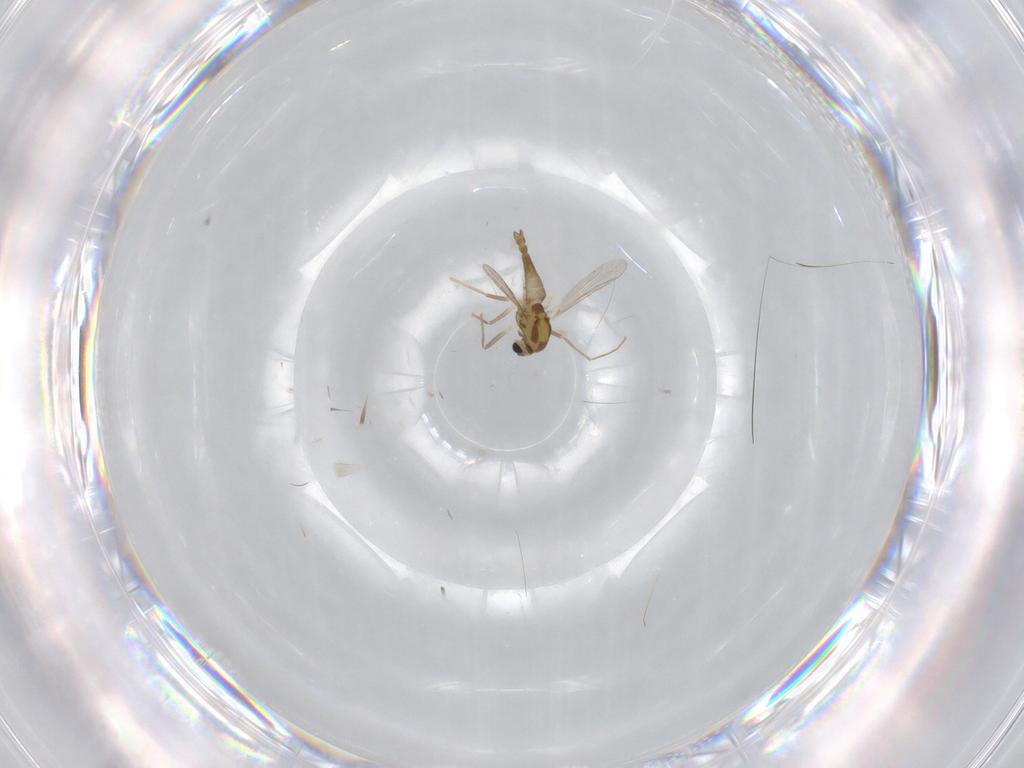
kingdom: Animalia
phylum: Arthropoda
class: Insecta
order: Diptera
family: Chironomidae
